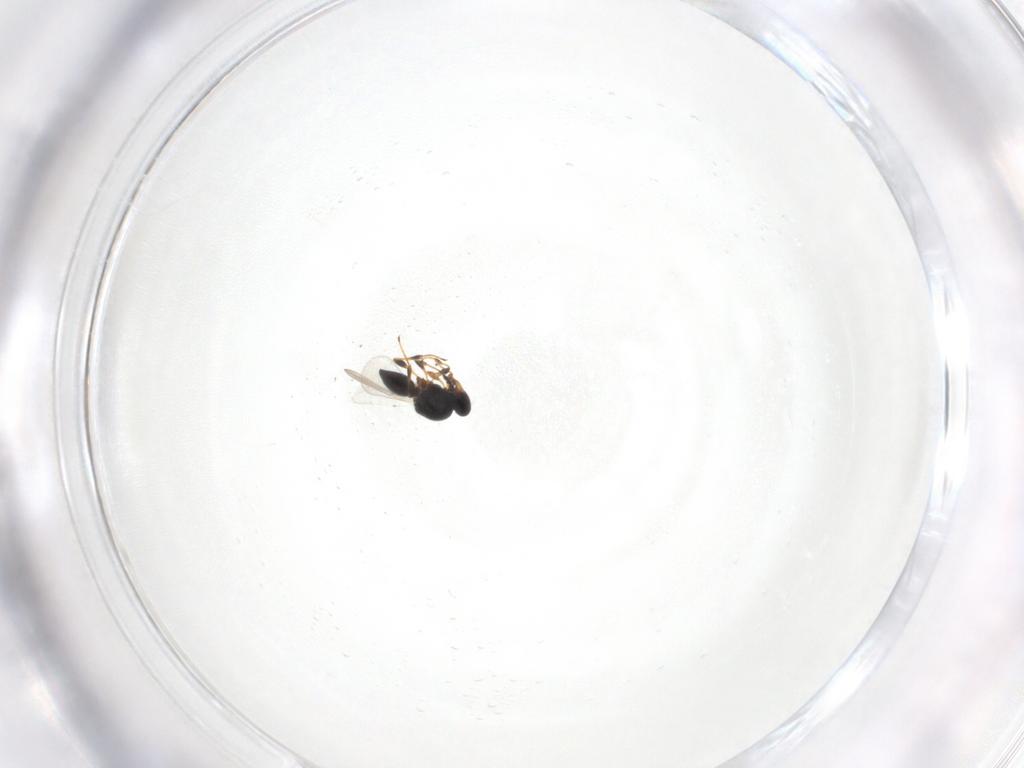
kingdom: Animalia
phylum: Arthropoda
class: Insecta
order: Hymenoptera
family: Platygastridae
